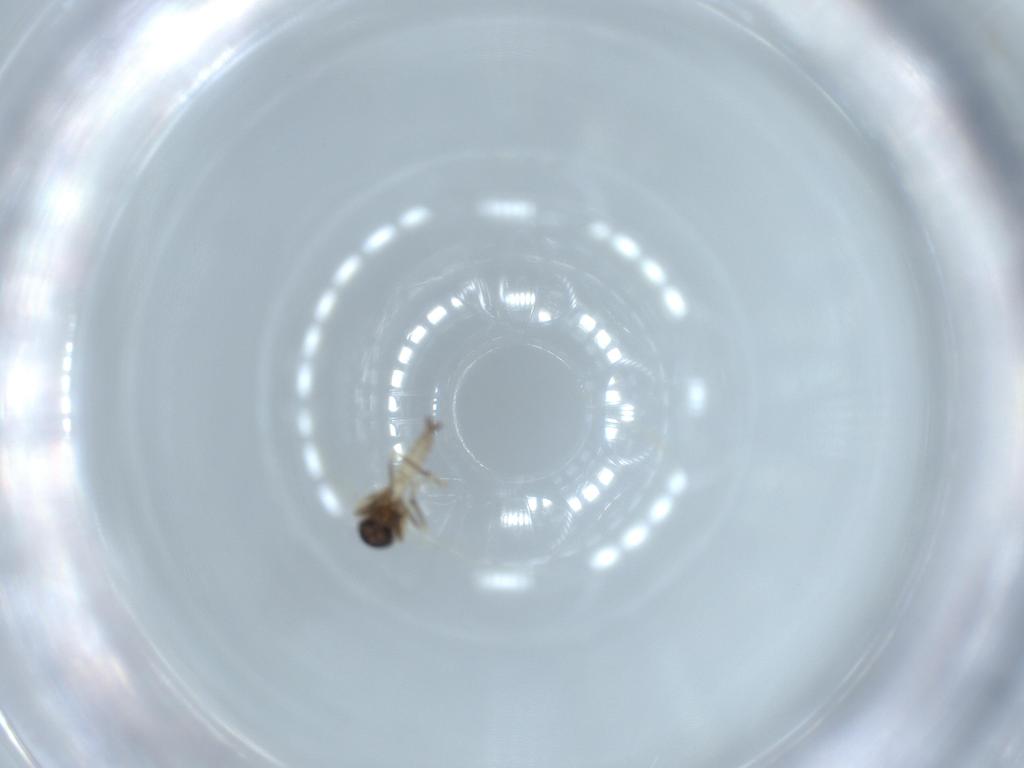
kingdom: Animalia
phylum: Arthropoda
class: Insecta
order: Diptera
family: Ceratopogonidae
